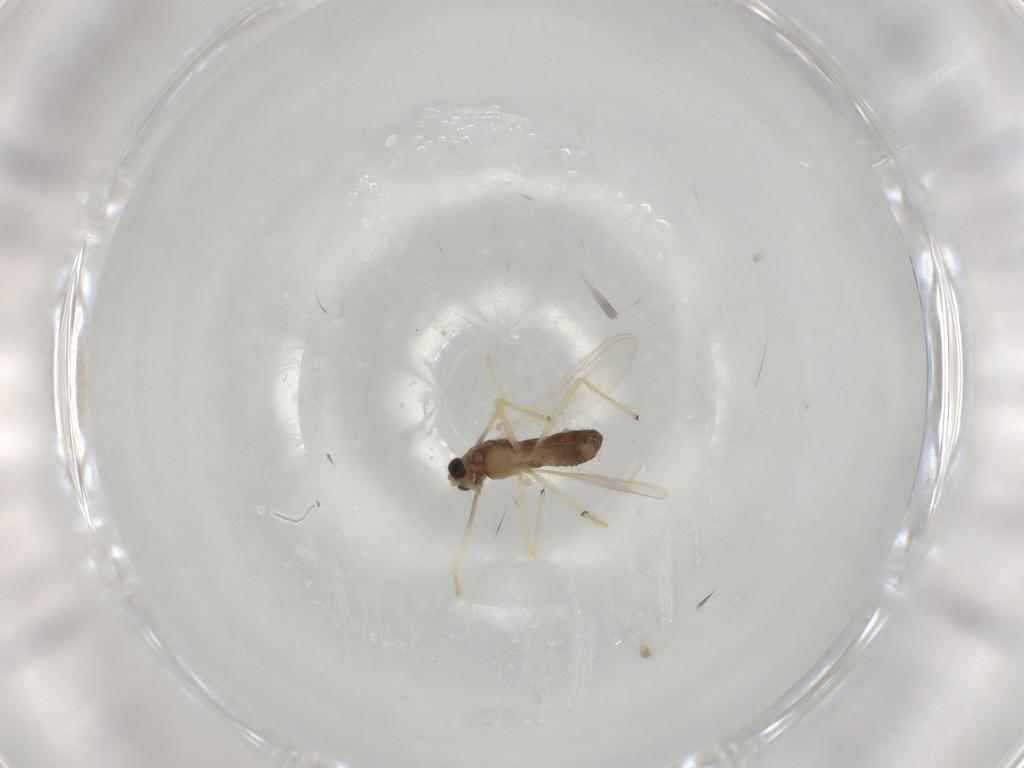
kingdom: Animalia
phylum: Arthropoda
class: Insecta
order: Diptera
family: Chironomidae
